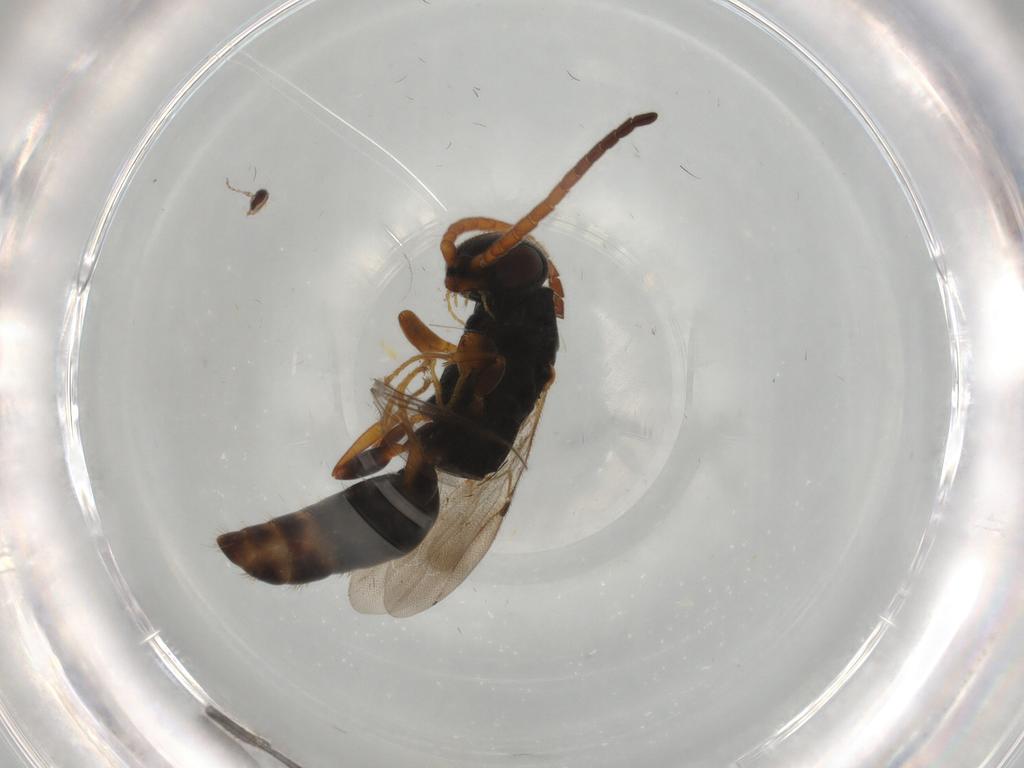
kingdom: Animalia
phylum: Arthropoda
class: Insecta
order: Hymenoptera
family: Bethylidae
